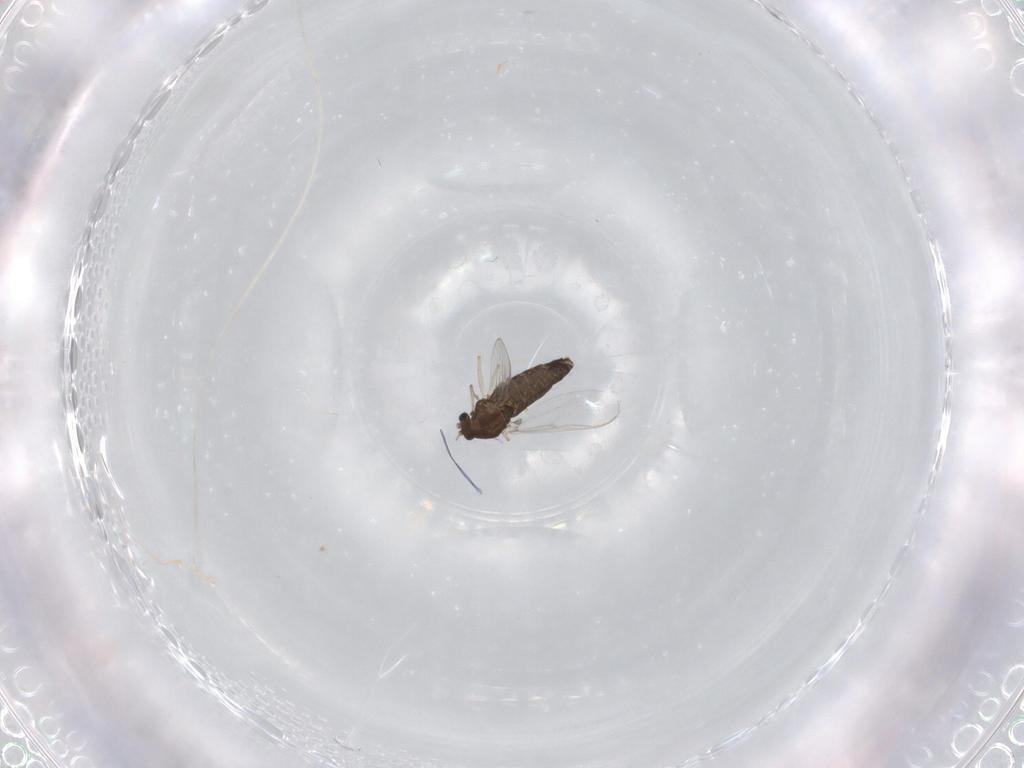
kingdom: Animalia
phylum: Arthropoda
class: Insecta
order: Diptera
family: Chironomidae
